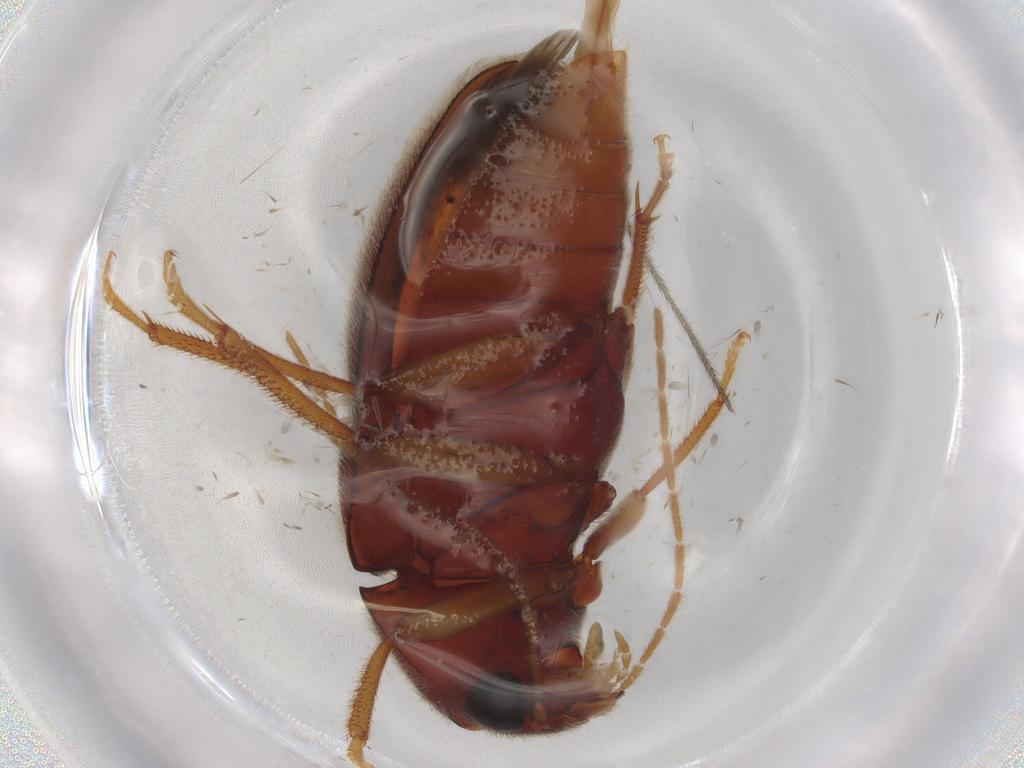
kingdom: Animalia
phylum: Arthropoda
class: Insecta
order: Coleoptera
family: Ptilodactylidae
